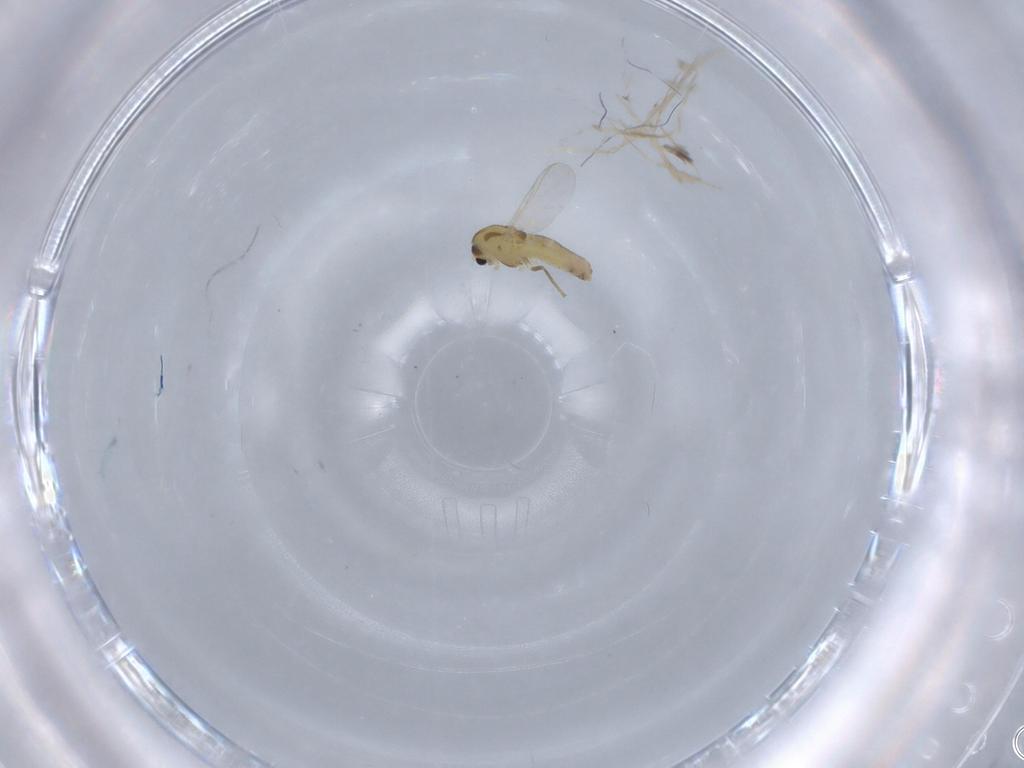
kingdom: Animalia
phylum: Arthropoda
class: Insecta
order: Diptera
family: Chironomidae
